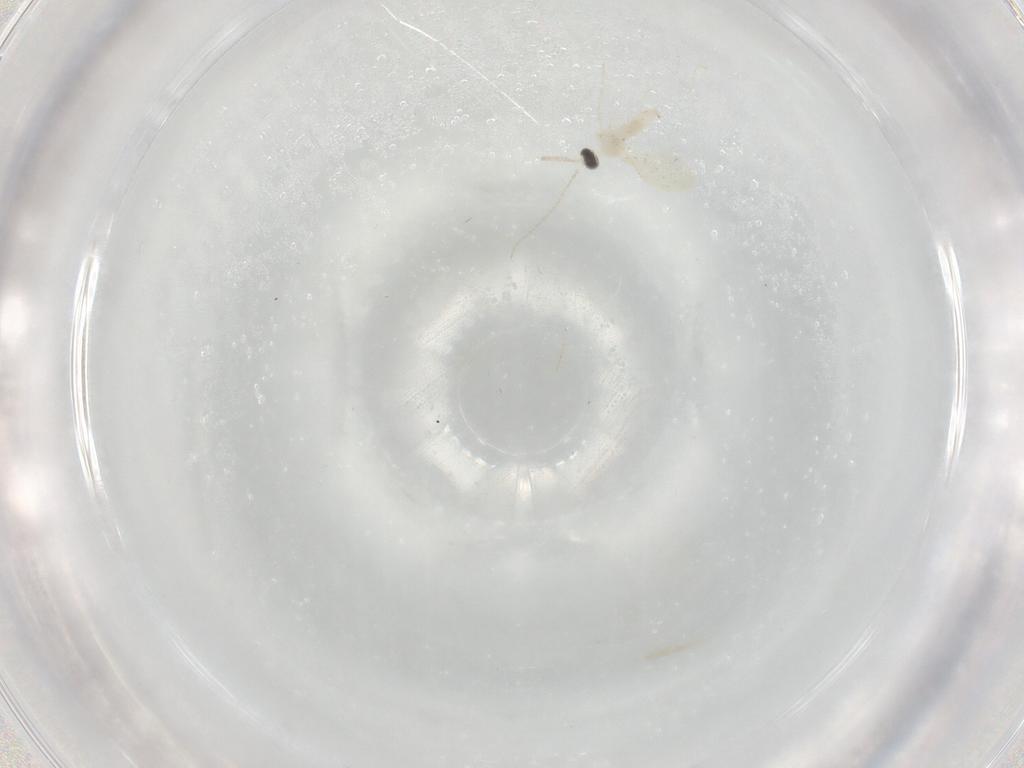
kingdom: Animalia
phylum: Arthropoda
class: Insecta
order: Diptera
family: Cecidomyiidae
